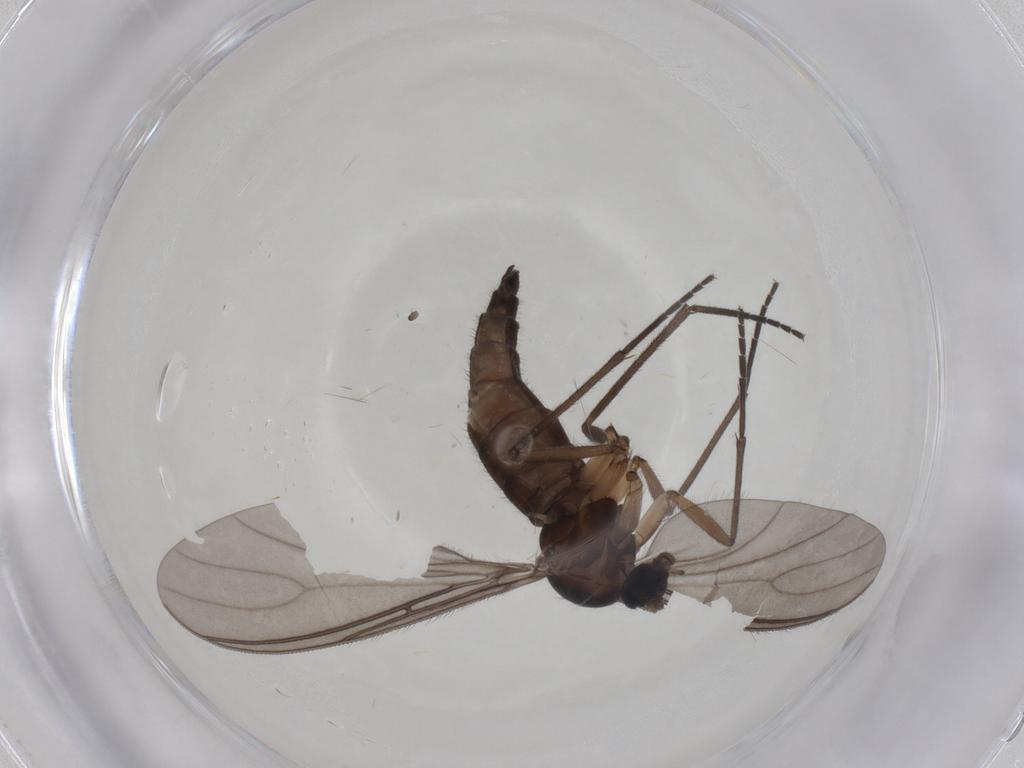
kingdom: Animalia
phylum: Arthropoda
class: Insecta
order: Diptera
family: Sciaridae
